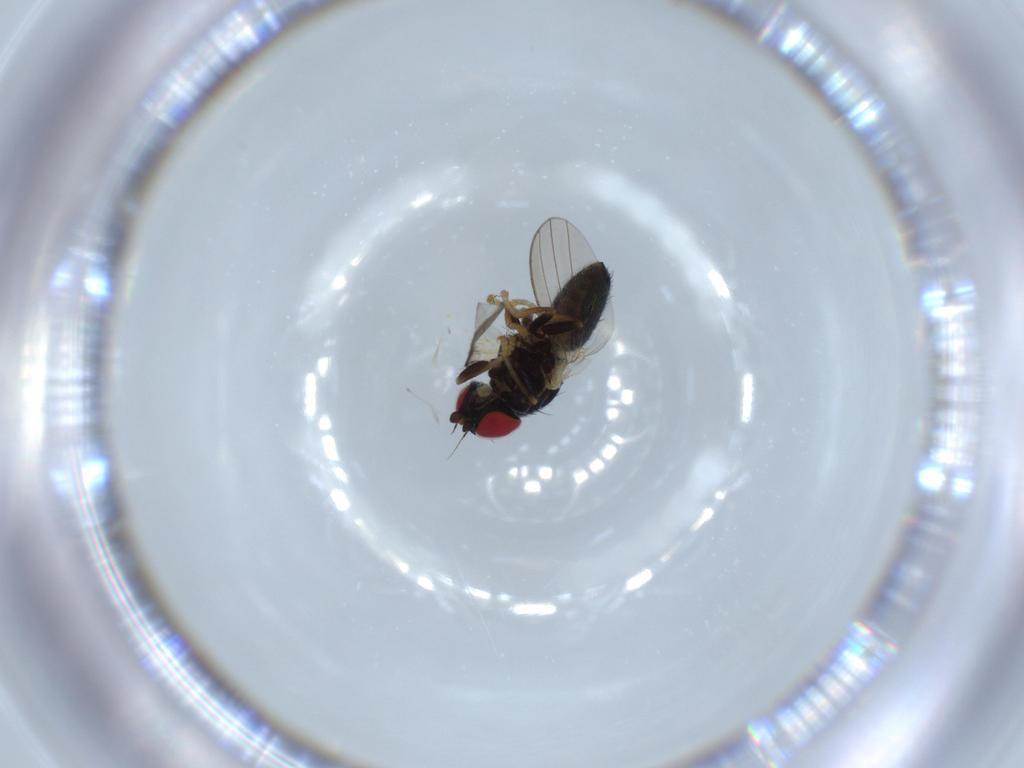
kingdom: Animalia
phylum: Arthropoda
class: Insecta
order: Diptera
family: Chamaemyiidae
